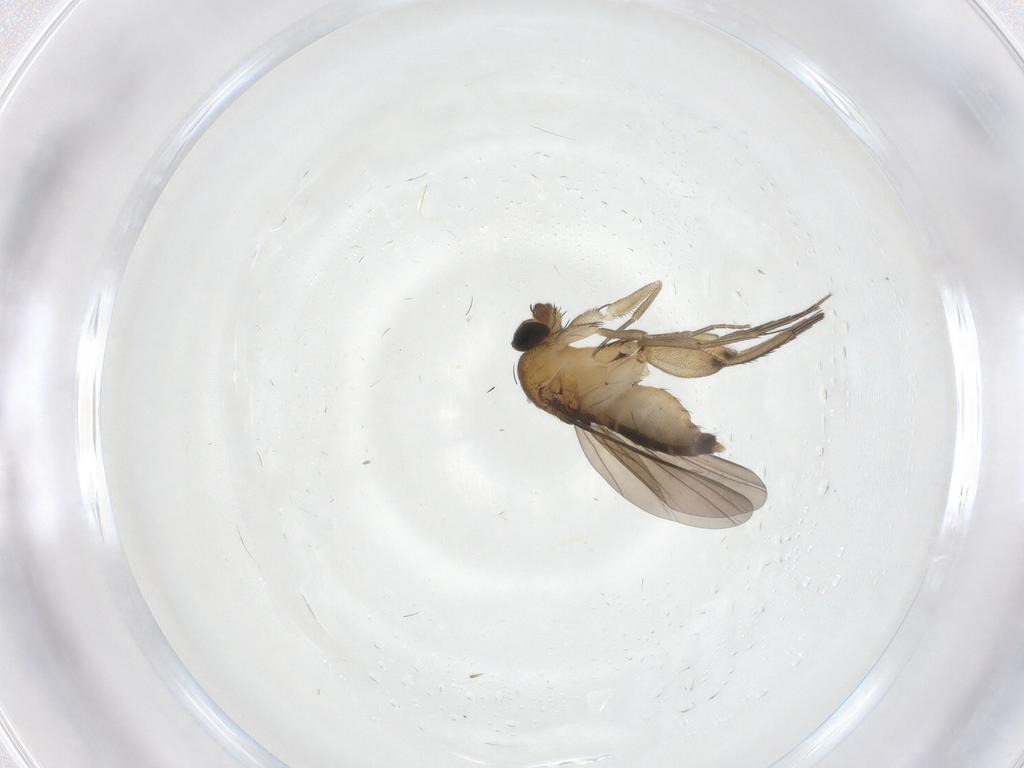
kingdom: Animalia
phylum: Arthropoda
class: Insecta
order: Diptera
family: Phoridae
